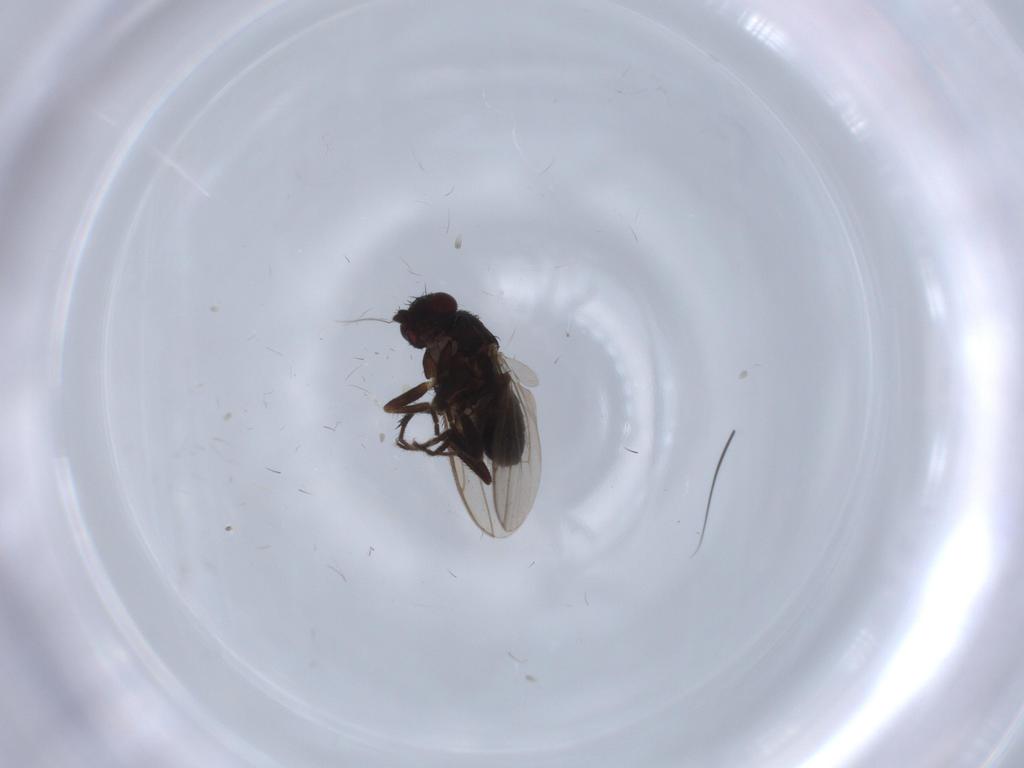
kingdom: Animalia
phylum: Arthropoda
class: Insecta
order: Diptera
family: Sphaeroceridae
